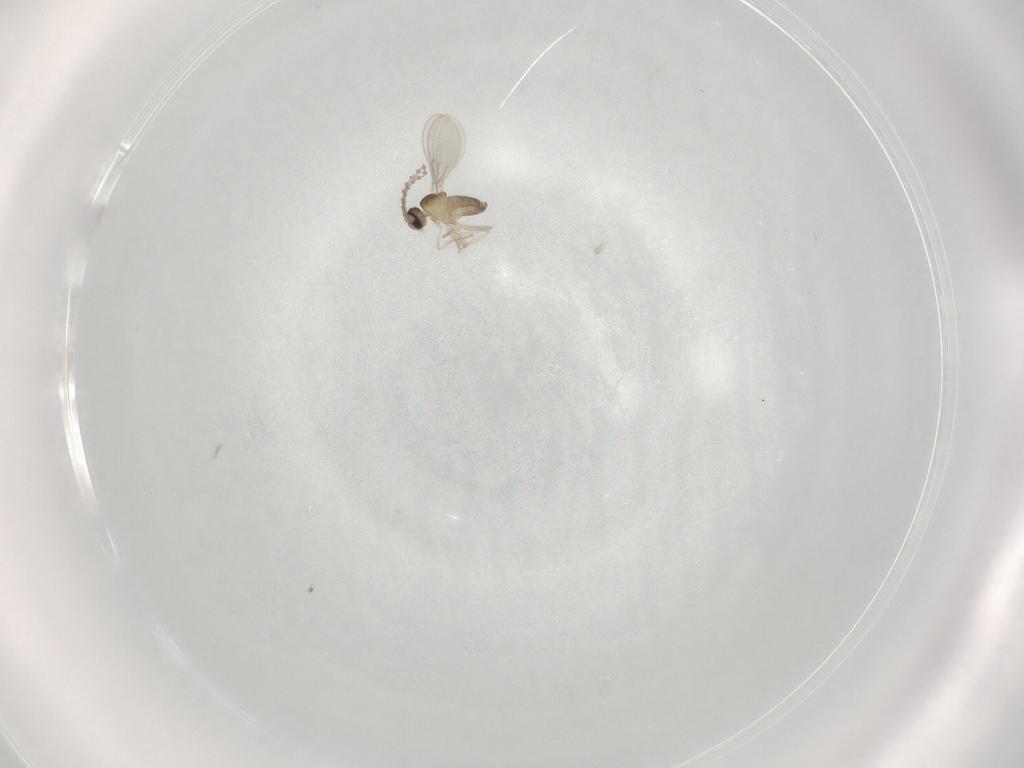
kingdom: Animalia
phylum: Arthropoda
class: Insecta
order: Diptera
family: Cecidomyiidae
